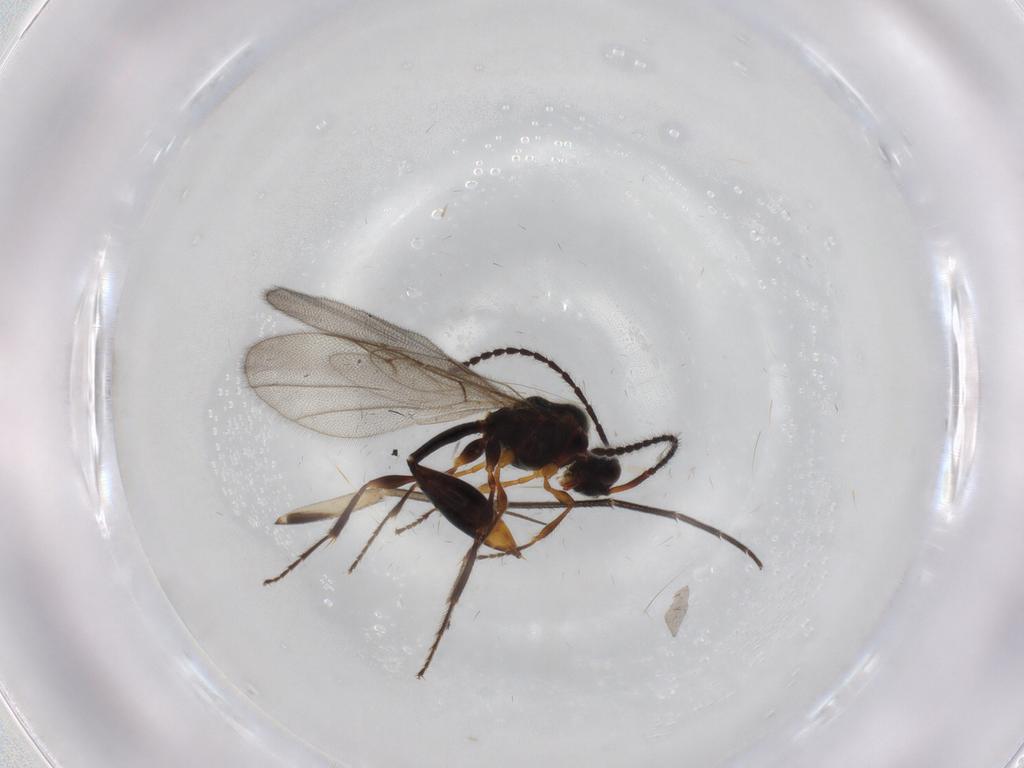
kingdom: Animalia
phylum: Arthropoda
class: Insecta
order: Hymenoptera
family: Diapriidae
